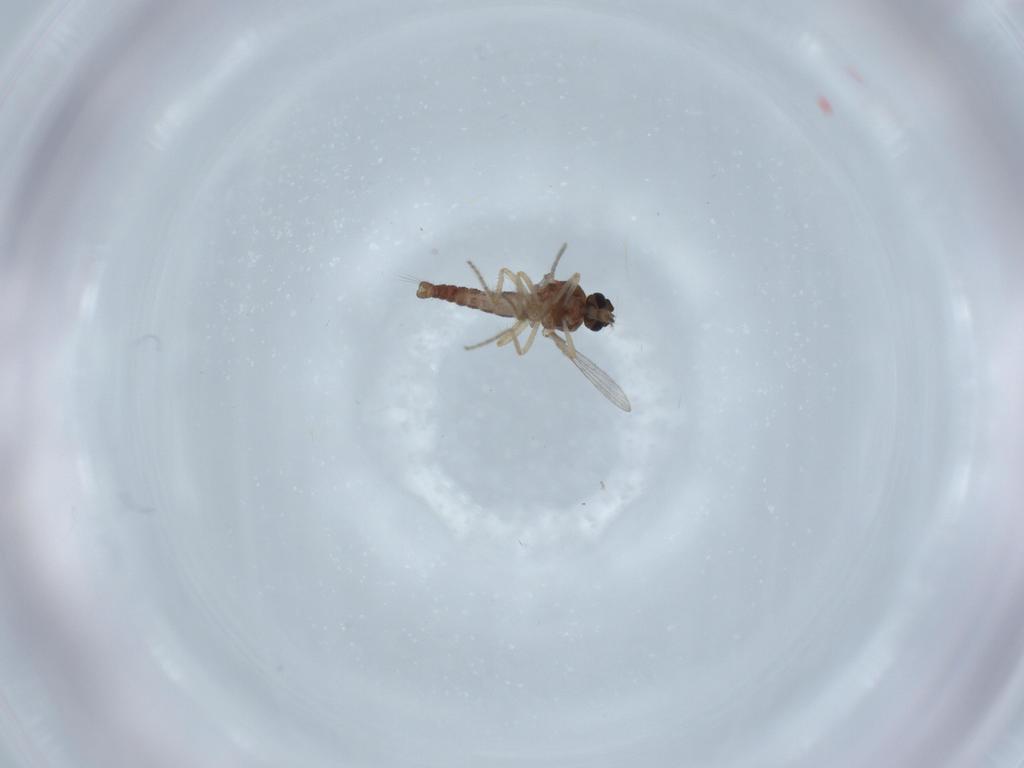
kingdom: Animalia
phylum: Arthropoda
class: Insecta
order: Diptera
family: Ceratopogonidae
